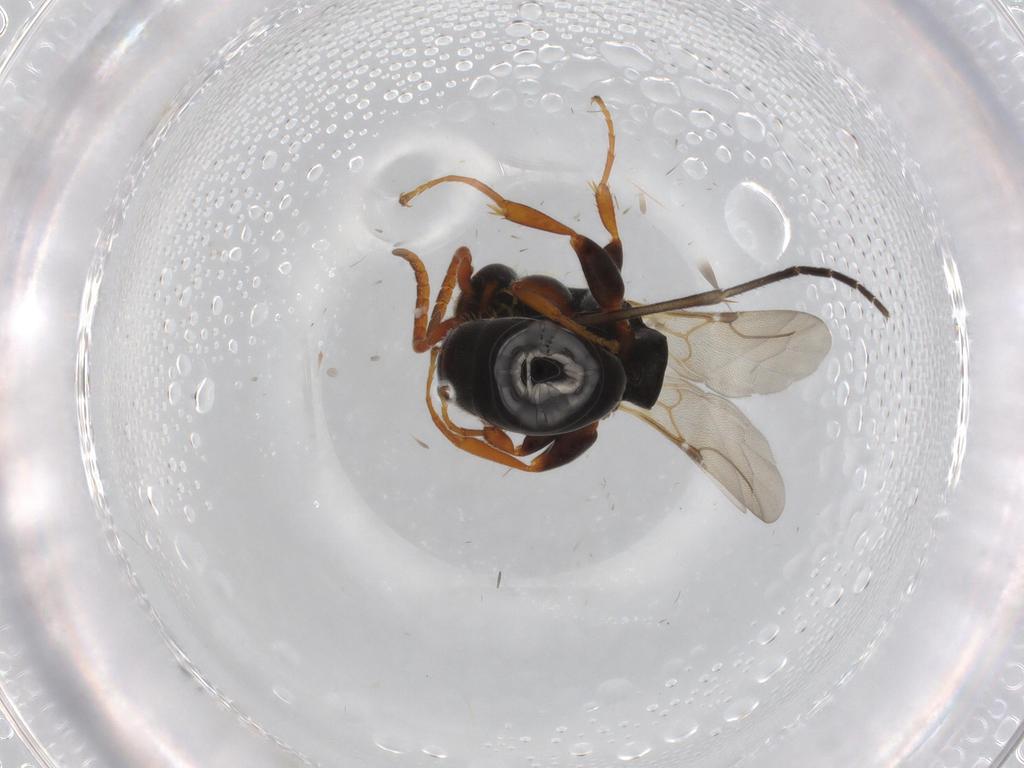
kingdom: Animalia
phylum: Arthropoda
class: Insecta
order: Hymenoptera
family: Bethylidae
